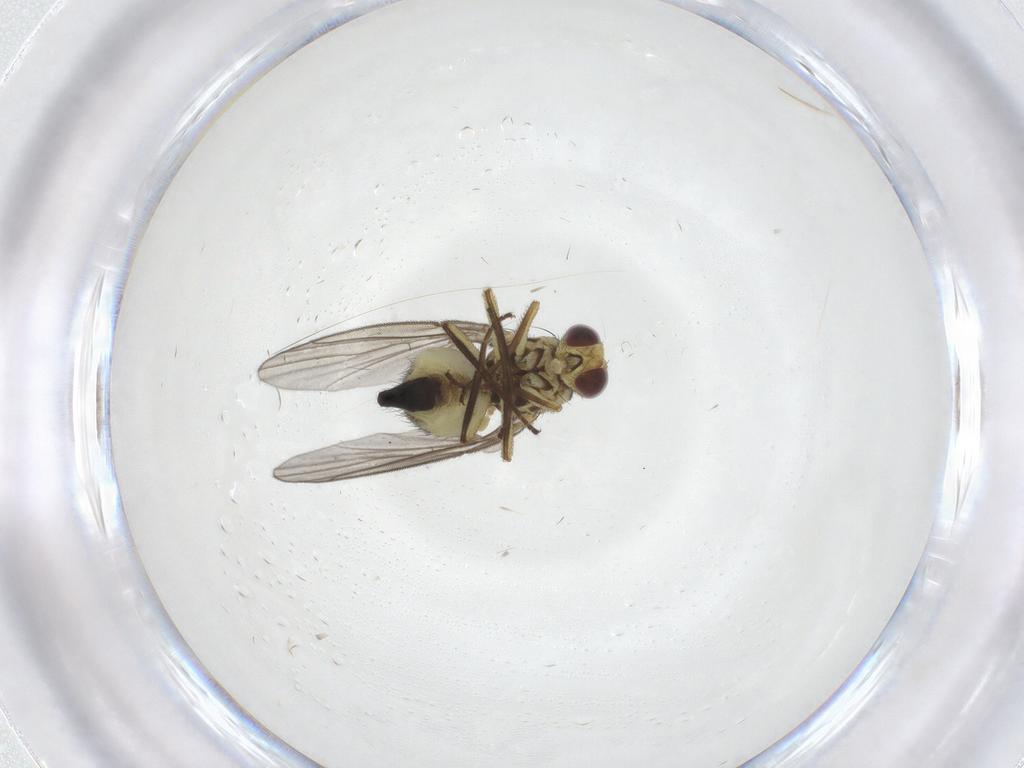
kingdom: Animalia
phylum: Arthropoda
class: Insecta
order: Diptera
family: Agromyzidae
